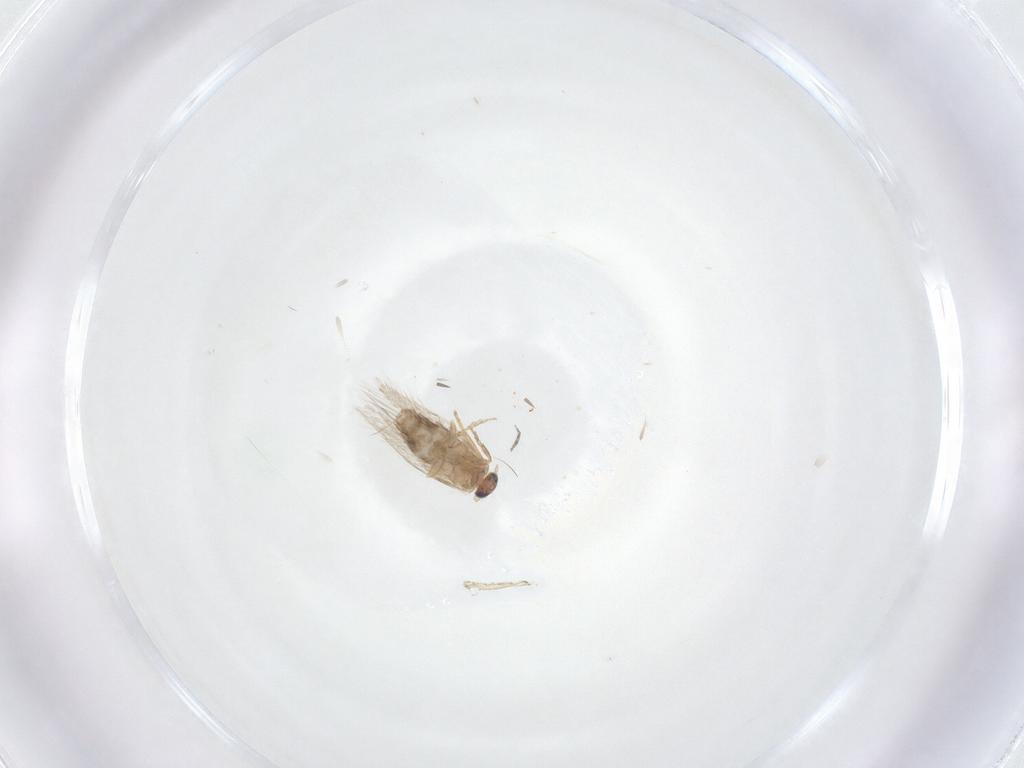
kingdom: Animalia
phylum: Arthropoda
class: Insecta
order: Lepidoptera
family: Nepticulidae
